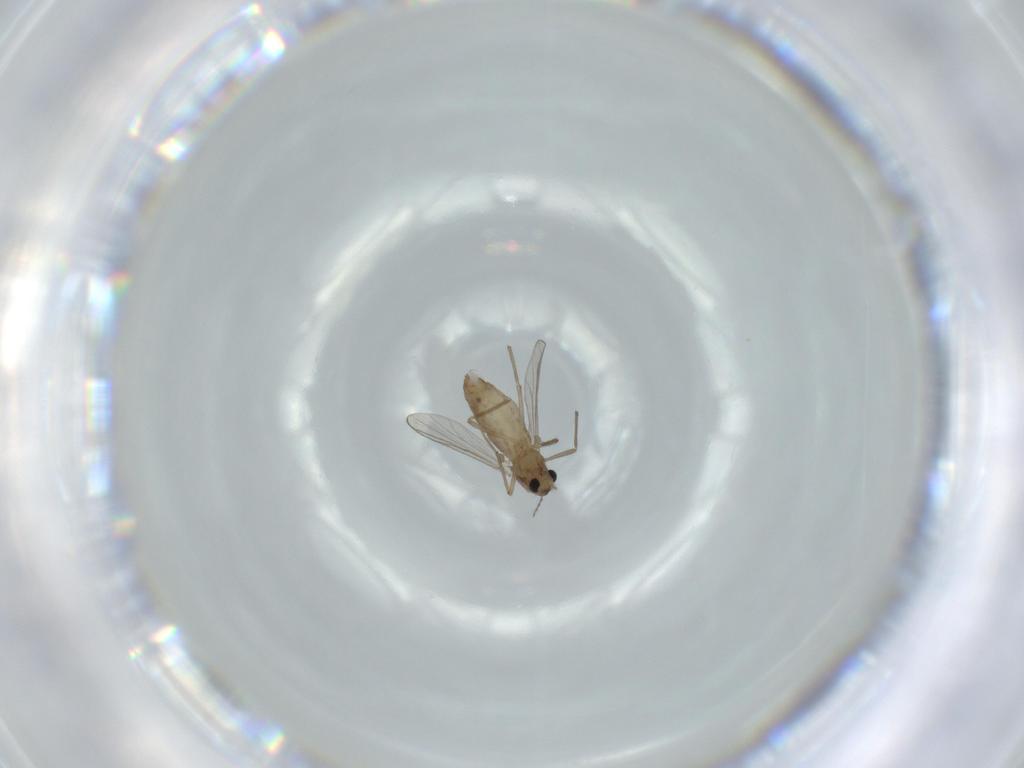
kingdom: Animalia
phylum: Arthropoda
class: Insecta
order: Diptera
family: Chironomidae
